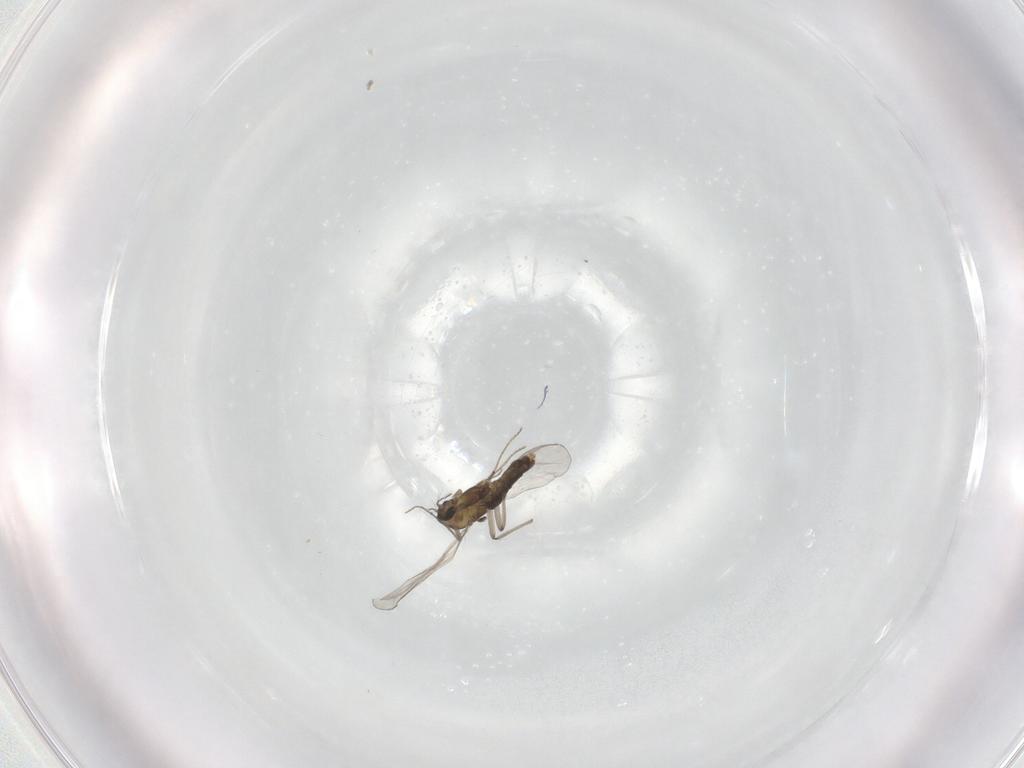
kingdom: Animalia
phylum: Arthropoda
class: Insecta
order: Diptera
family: Chironomidae
